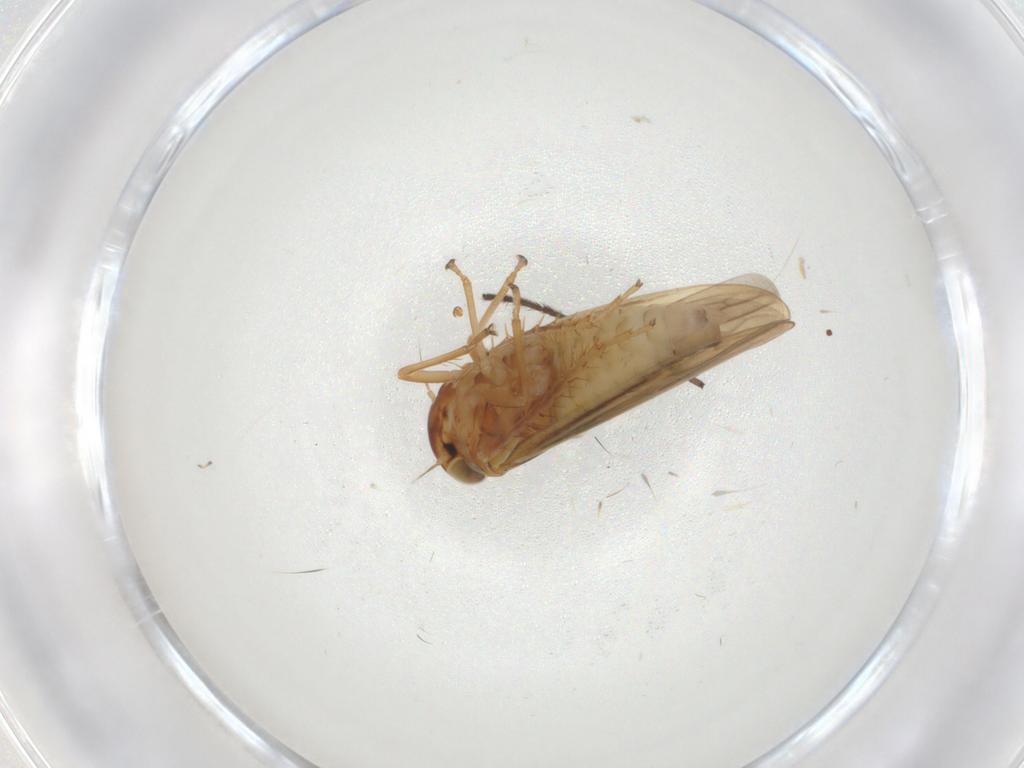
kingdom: Animalia
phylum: Arthropoda
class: Insecta
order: Hemiptera
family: Cicadellidae
